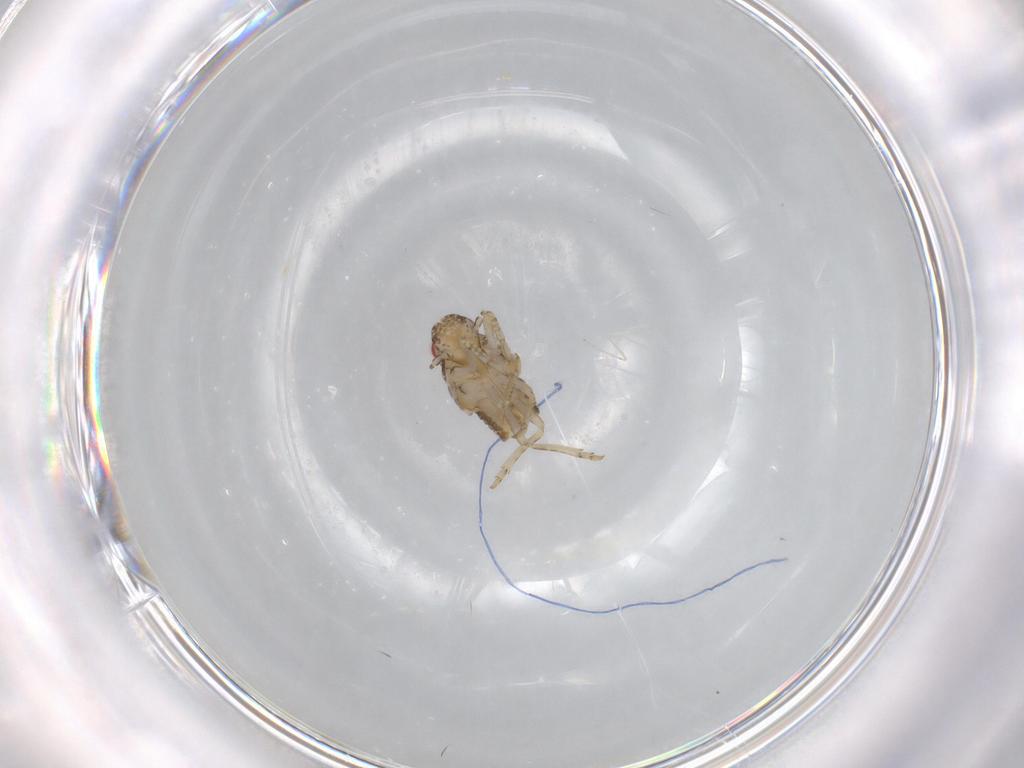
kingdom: Animalia
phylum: Arthropoda
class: Insecta
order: Hemiptera
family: Flatidae
